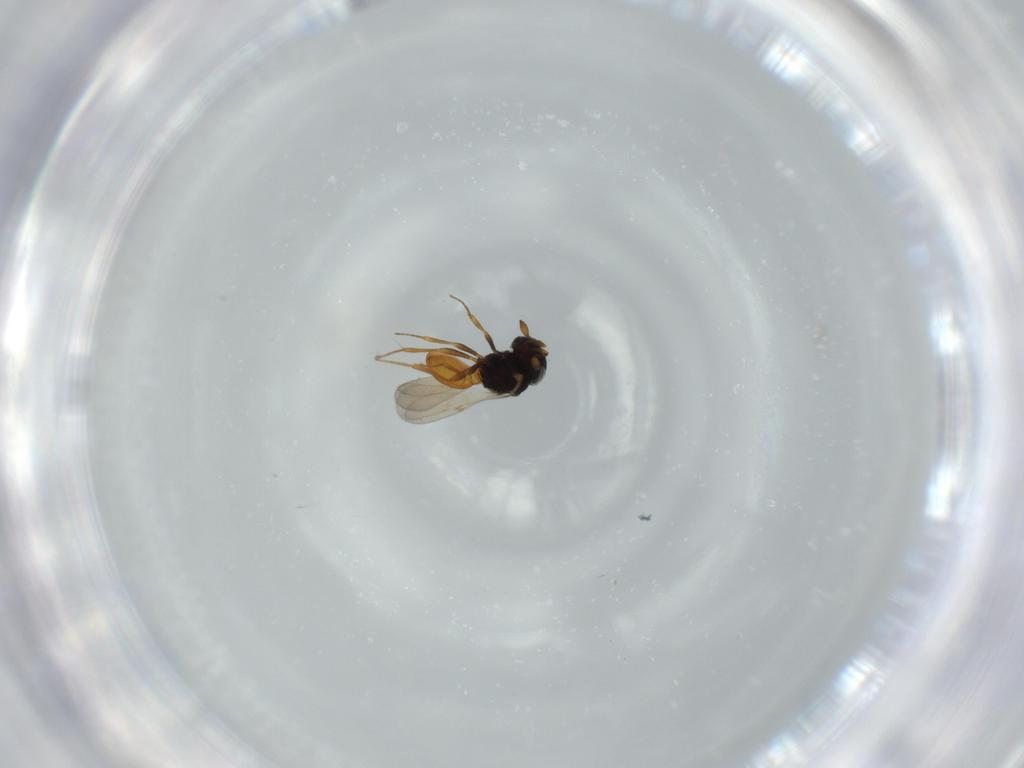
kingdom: Animalia
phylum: Arthropoda
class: Insecta
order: Hymenoptera
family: Scelionidae
